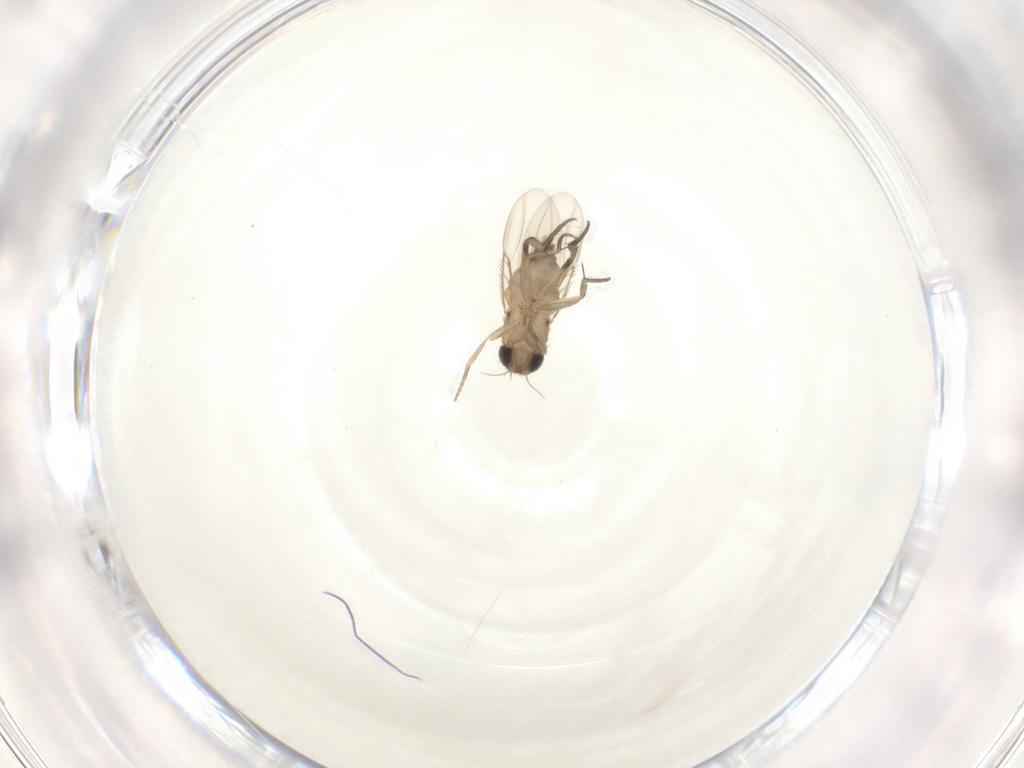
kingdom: Animalia
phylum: Arthropoda
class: Insecta
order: Diptera
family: Phoridae
